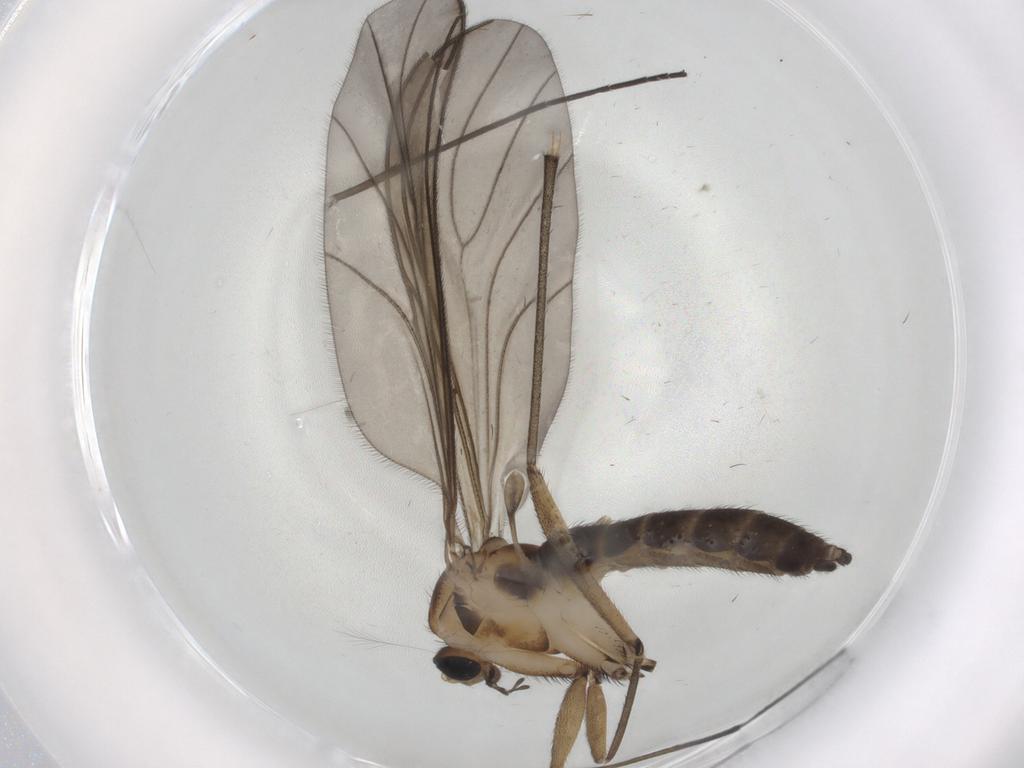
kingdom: Animalia
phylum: Arthropoda
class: Insecta
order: Diptera
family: Sciaridae
